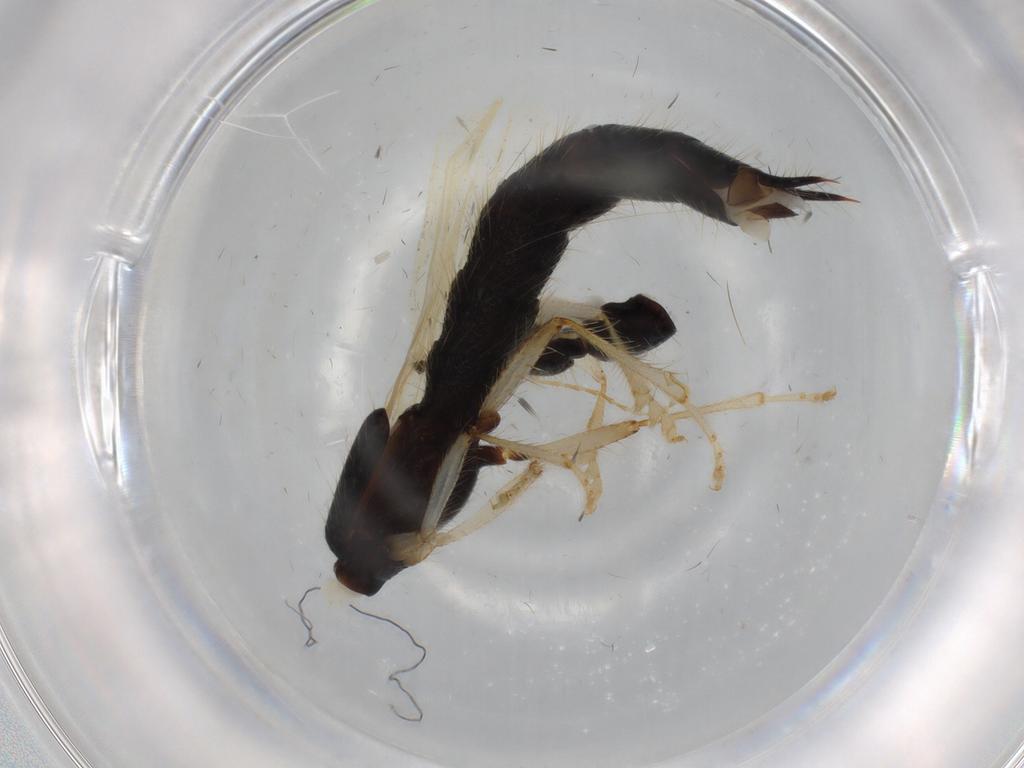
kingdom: Animalia
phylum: Arthropoda
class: Insecta
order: Coleoptera
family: Staphylinidae
